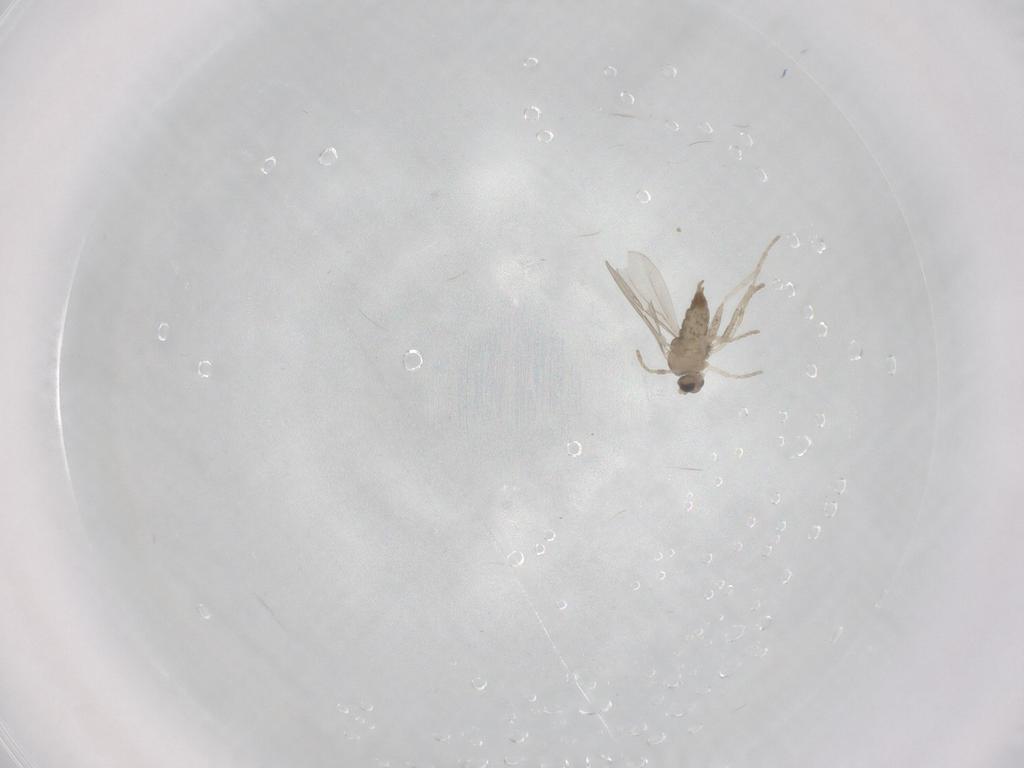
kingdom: Animalia
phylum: Arthropoda
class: Insecta
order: Diptera
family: Cecidomyiidae
